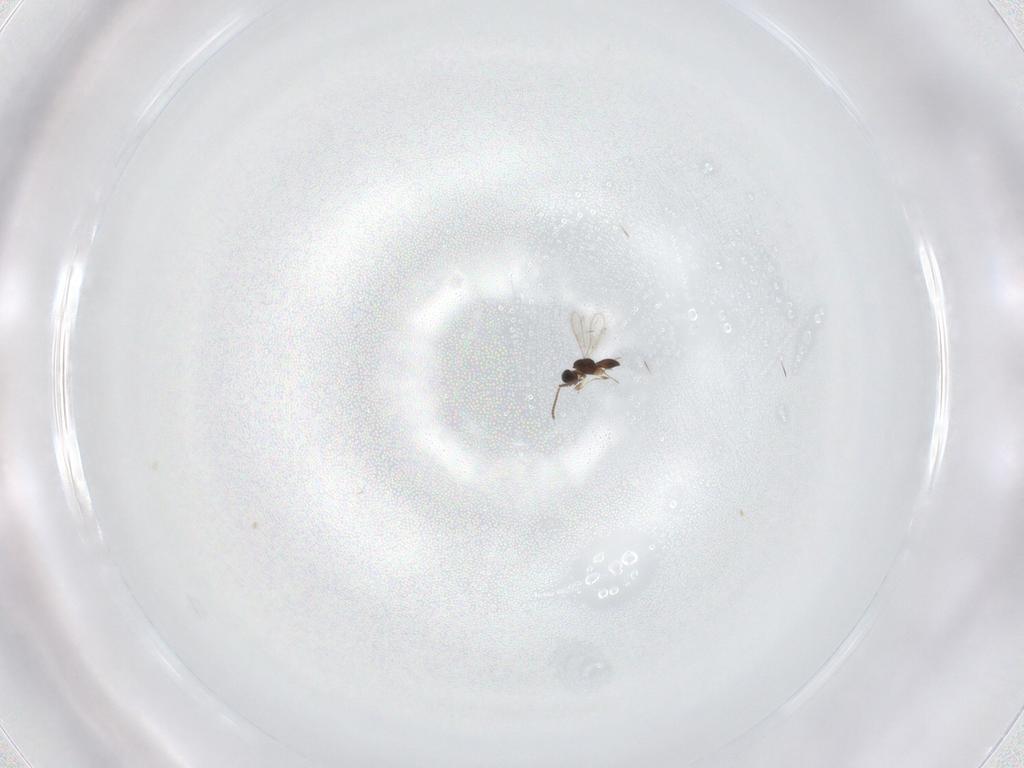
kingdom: Animalia
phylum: Arthropoda
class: Insecta
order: Hymenoptera
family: Scelionidae
